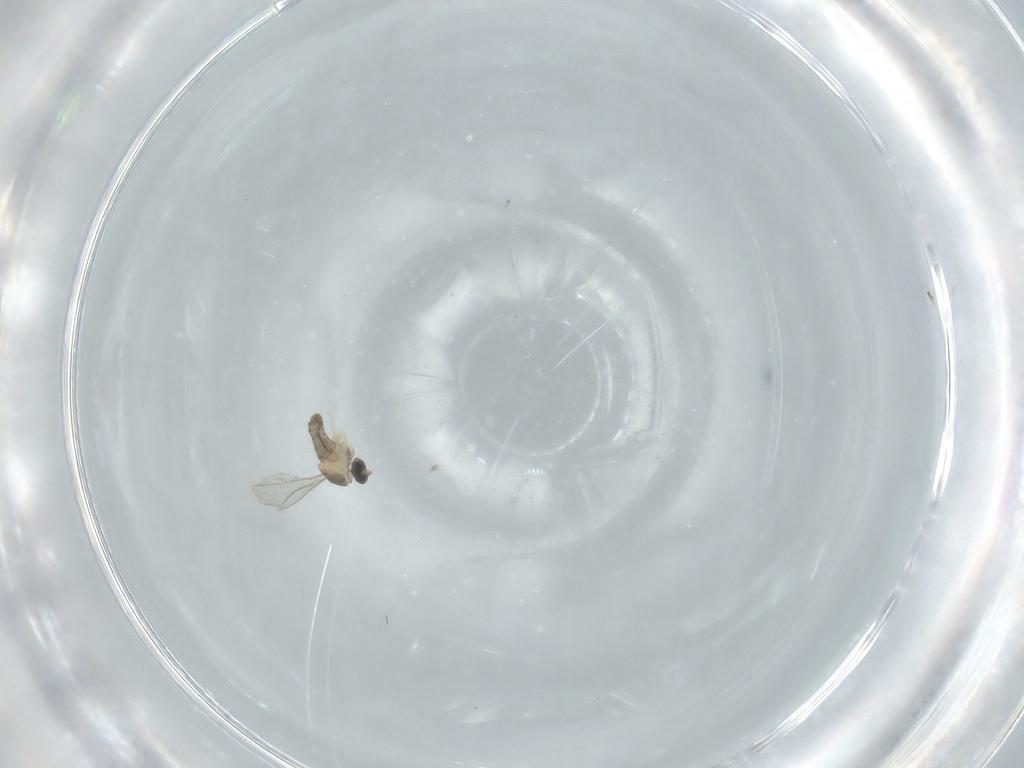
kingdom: Animalia
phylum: Arthropoda
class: Insecta
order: Diptera
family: Cecidomyiidae
